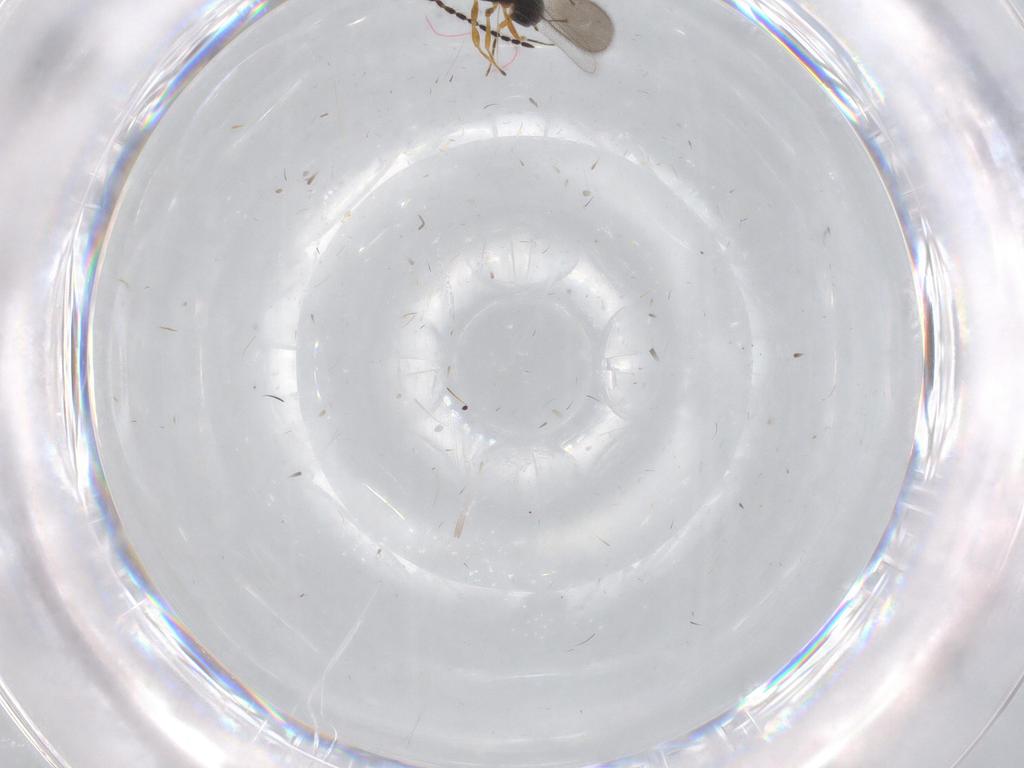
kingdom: Animalia
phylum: Arthropoda
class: Insecta
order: Hymenoptera
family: Scelionidae
